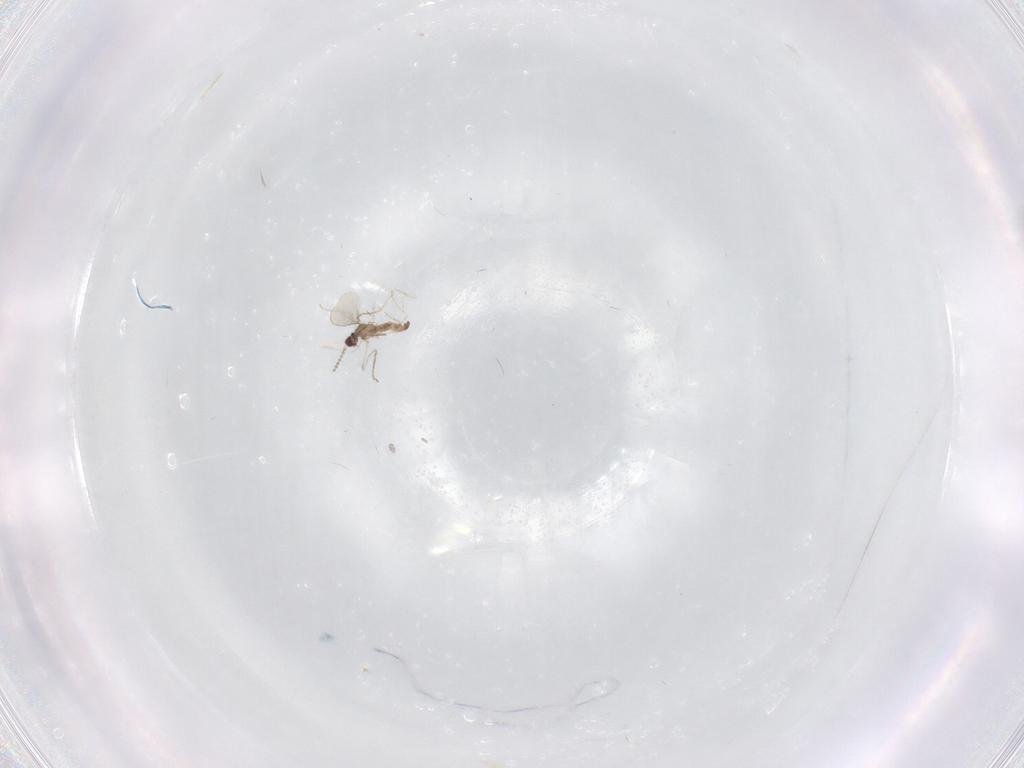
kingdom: Animalia
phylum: Arthropoda
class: Insecta
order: Diptera
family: Cecidomyiidae
